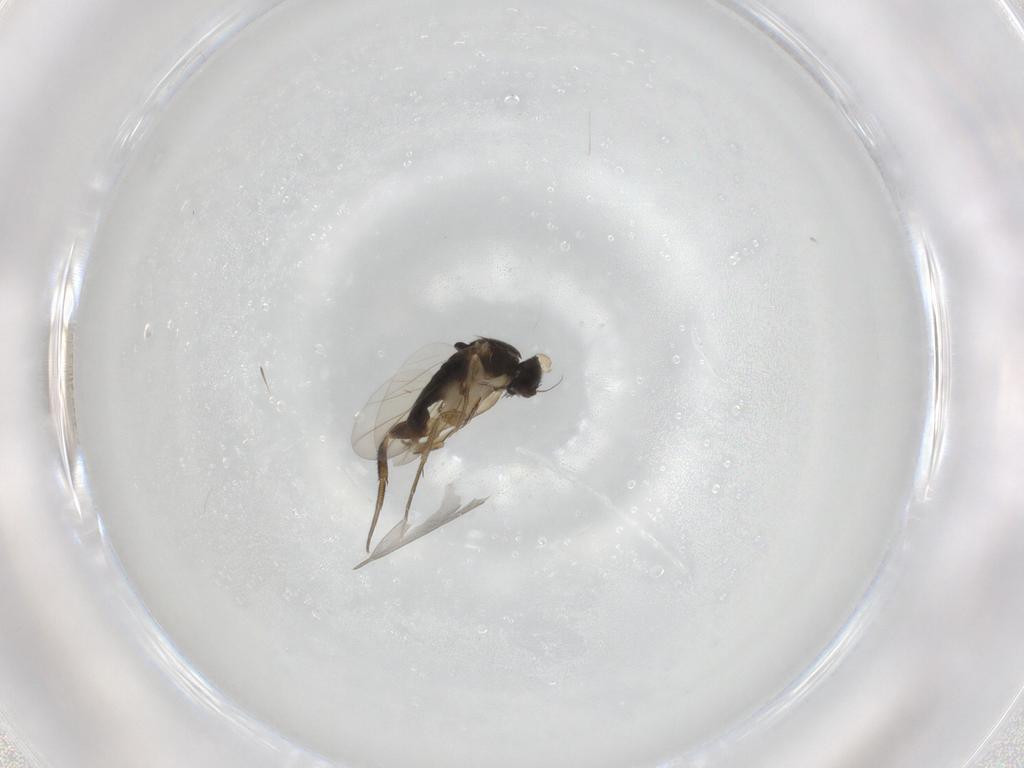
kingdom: Animalia
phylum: Arthropoda
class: Insecta
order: Diptera
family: Phoridae
